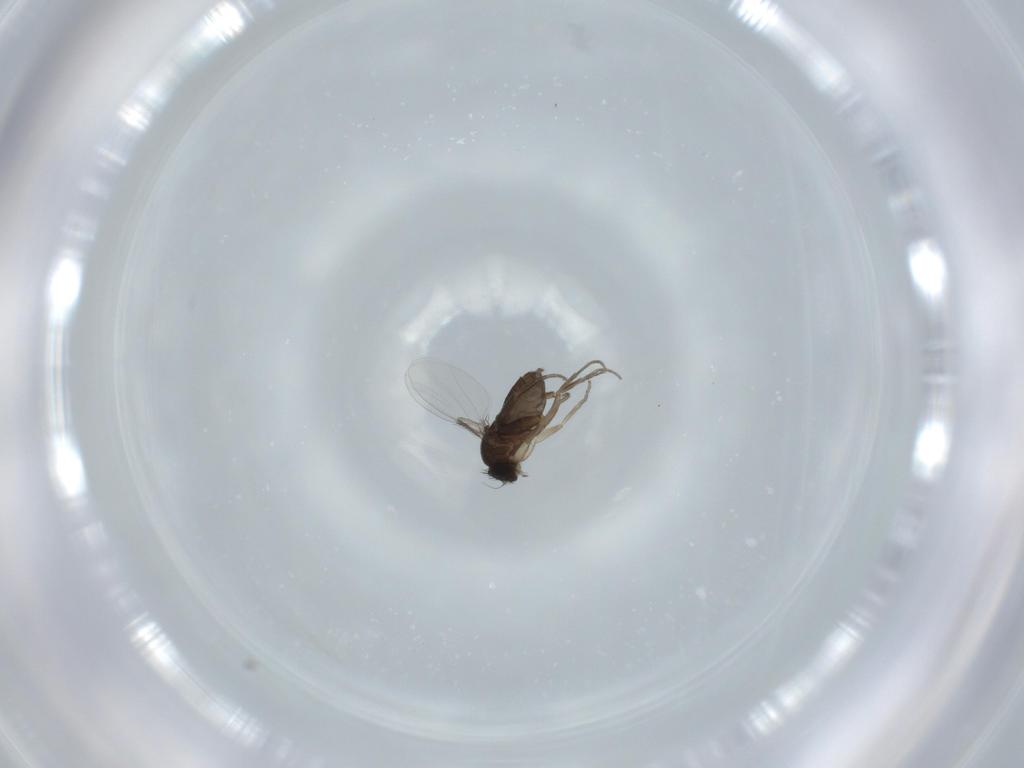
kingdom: Animalia
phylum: Arthropoda
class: Insecta
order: Diptera
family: Phoridae
